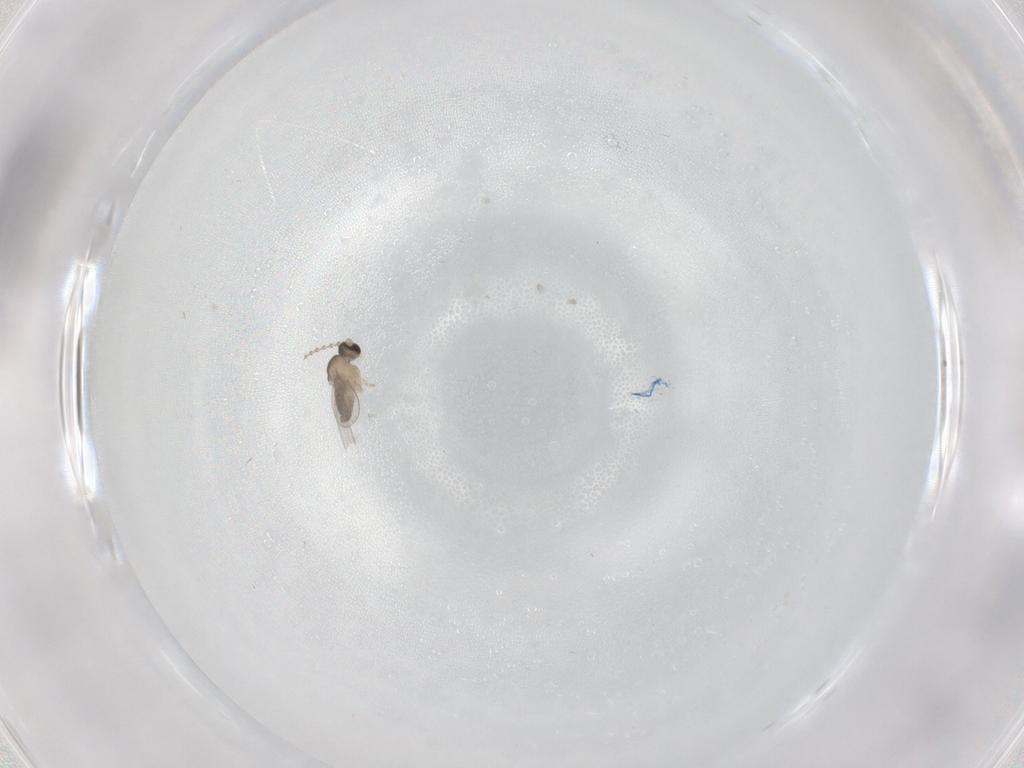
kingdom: Animalia
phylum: Arthropoda
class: Insecta
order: Diptera
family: Cecidomyiidae
